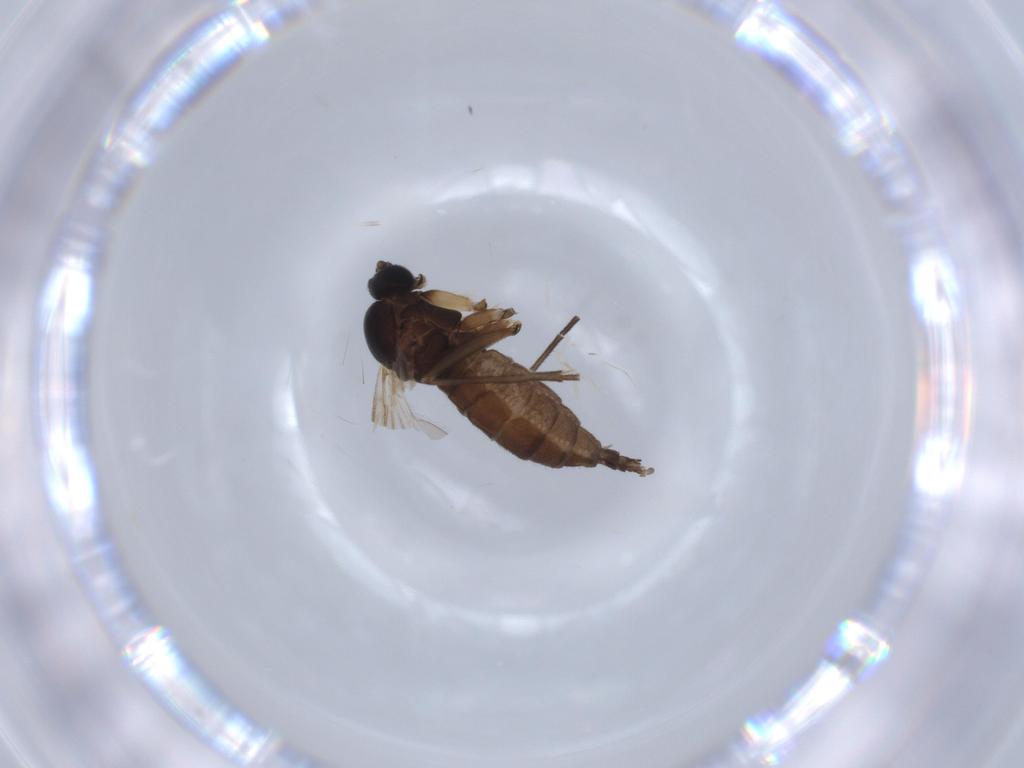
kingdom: Animalia
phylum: Arthropoda
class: Insecta
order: Diptera
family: Sciaridae
